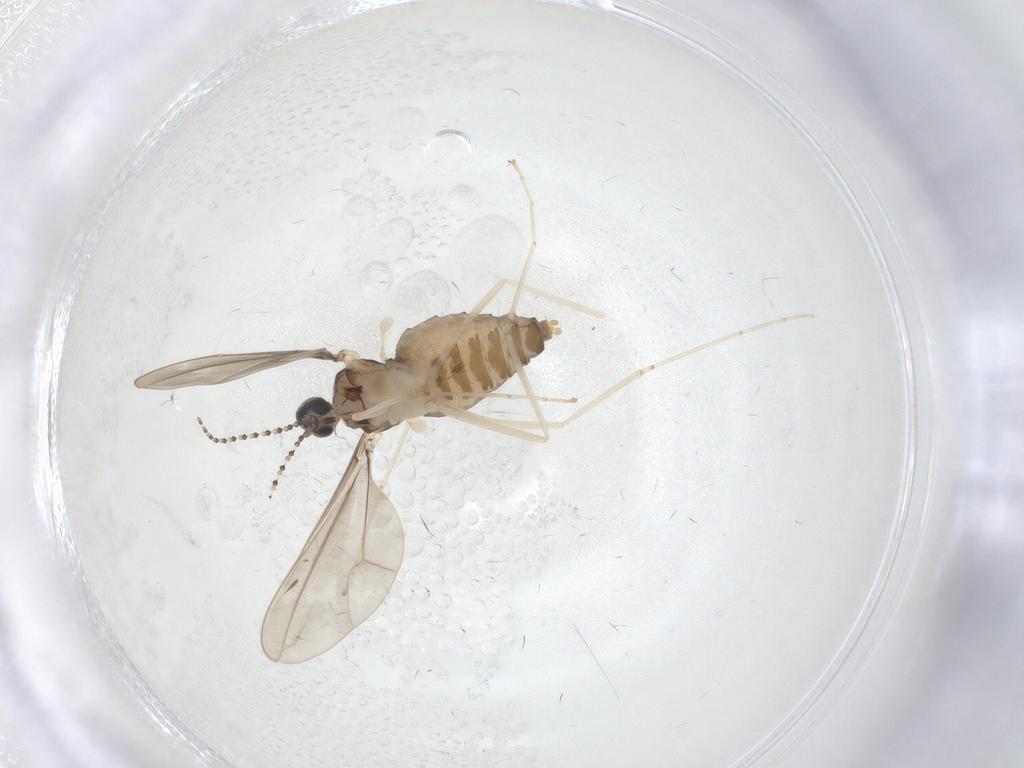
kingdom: Animalia
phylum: Arthropoda
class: Insecta
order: Diptera
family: Cecidomyiidae
